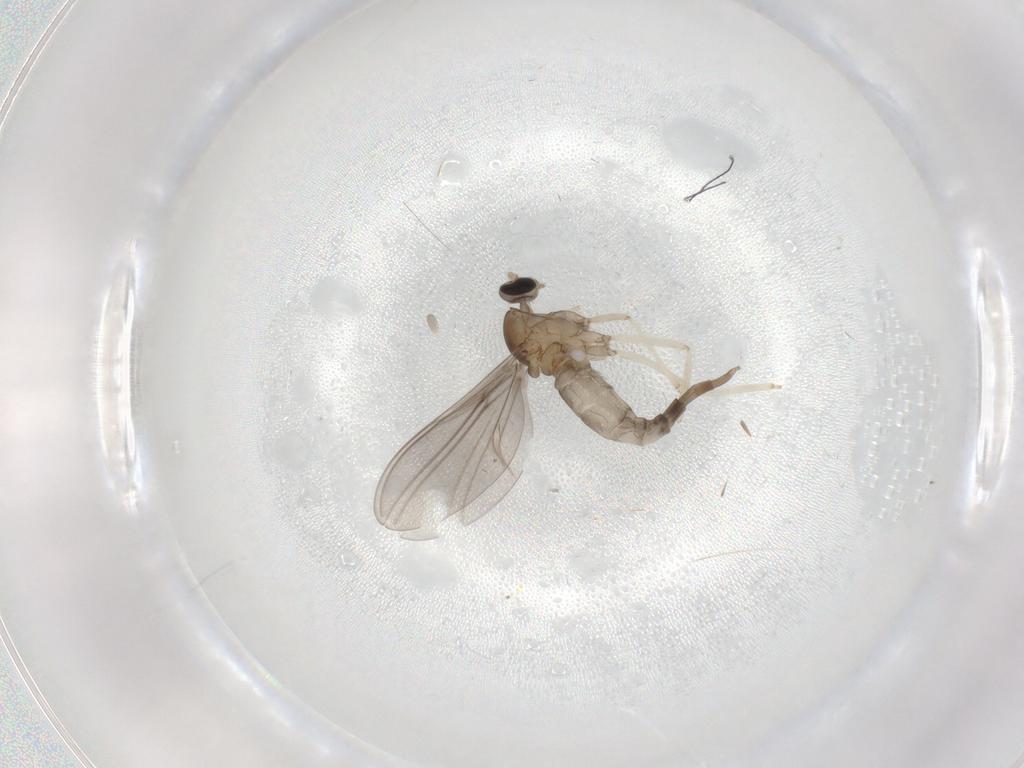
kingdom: Animalia
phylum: Arthropoda
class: Insecta
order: Diptera
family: Cecidomyiidae
